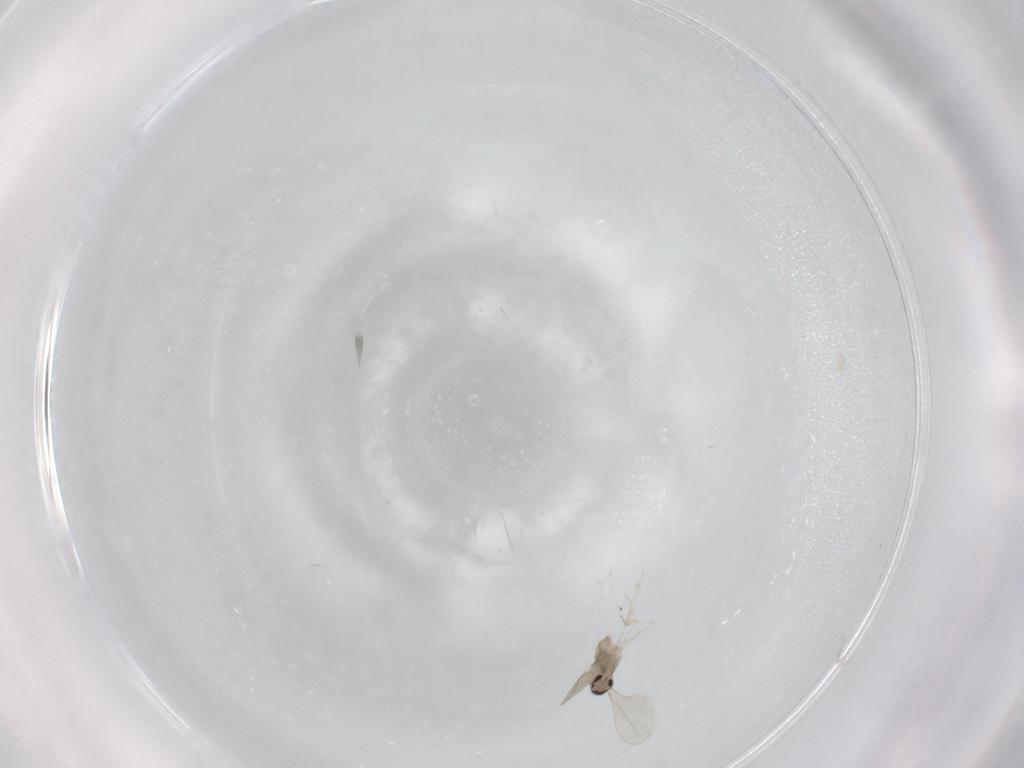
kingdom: Animalia
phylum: Arthropoda
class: Insecta
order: Diptera
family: Cecidomyiidae
